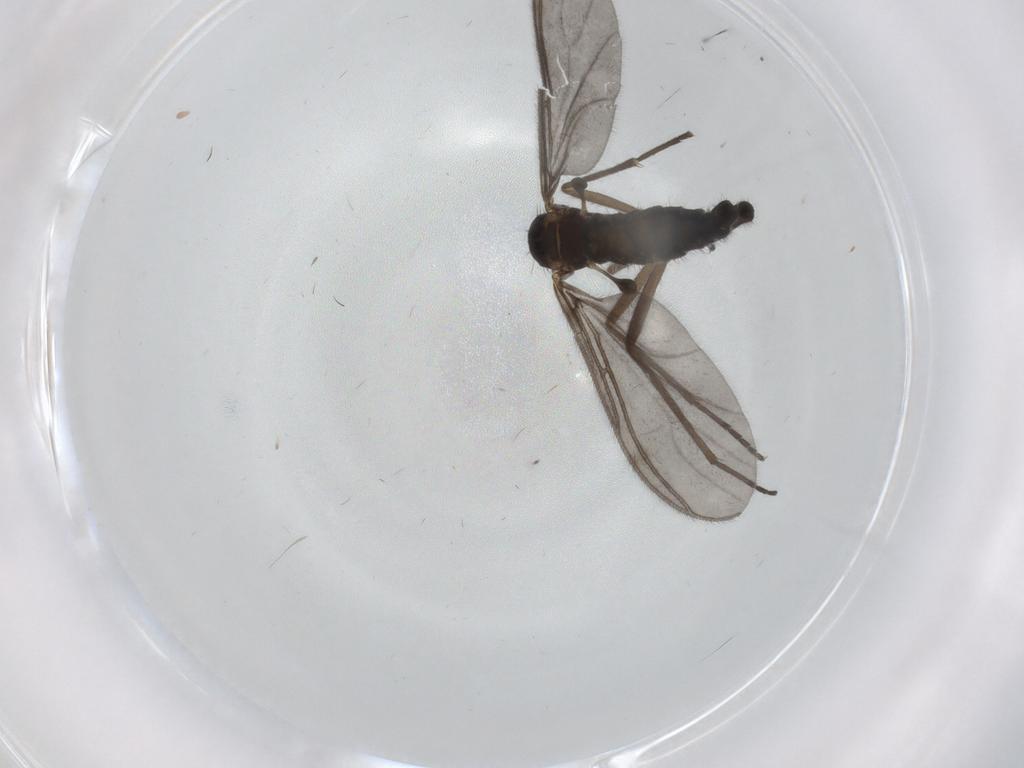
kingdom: Animalia
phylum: Arthropoda
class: Insecta
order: Diptera
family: Psychodidae
